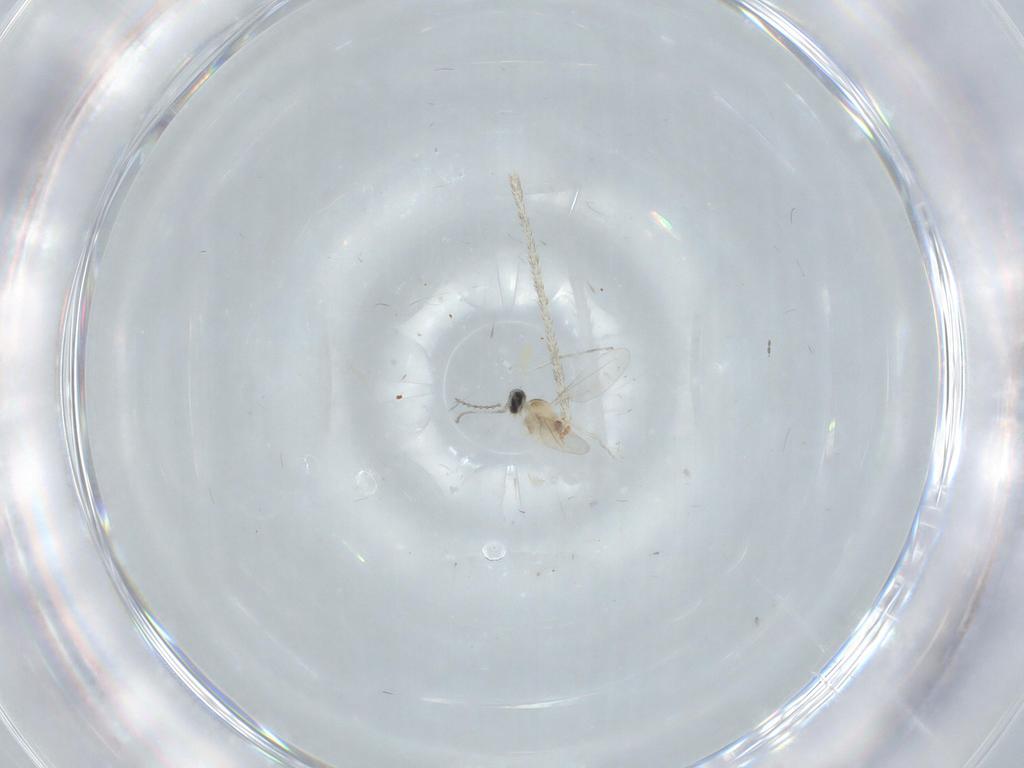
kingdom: Animalia
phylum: Arthropoda
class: Insecta
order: Diptera
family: Cecidomyiidae
